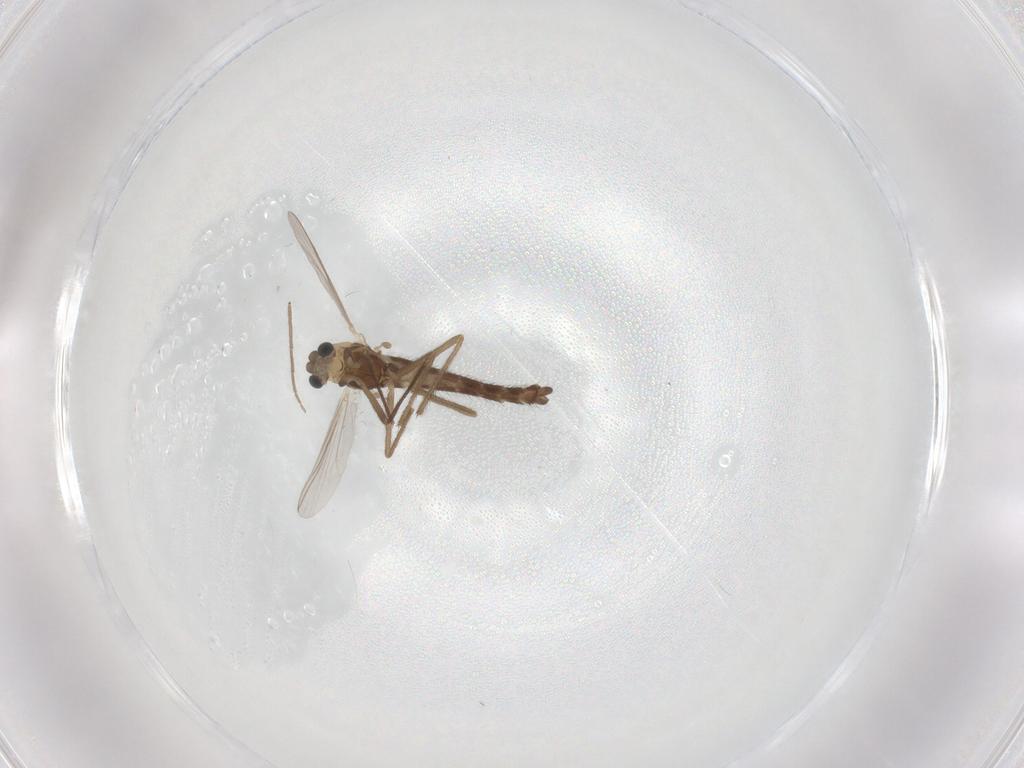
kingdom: Animalia
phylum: Arthropoda
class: Insecta
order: Diptera
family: Chironomidae
